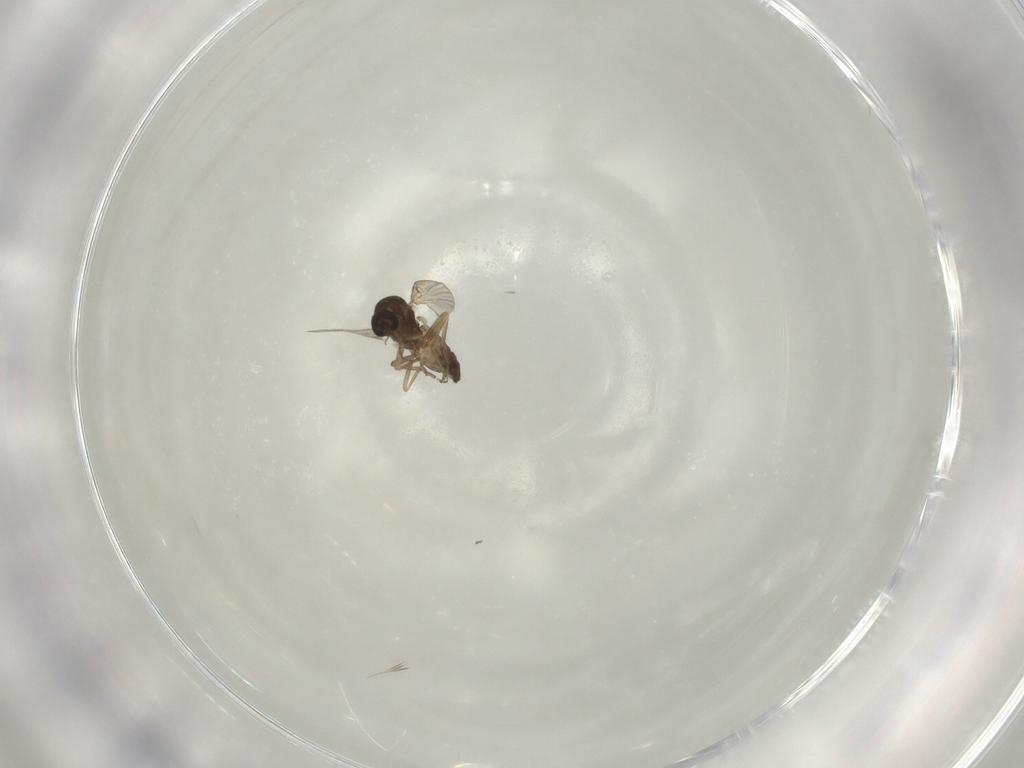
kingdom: Animalia
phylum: Arthropoda
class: Insecta
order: Diptera
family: Ceratopogonidae
